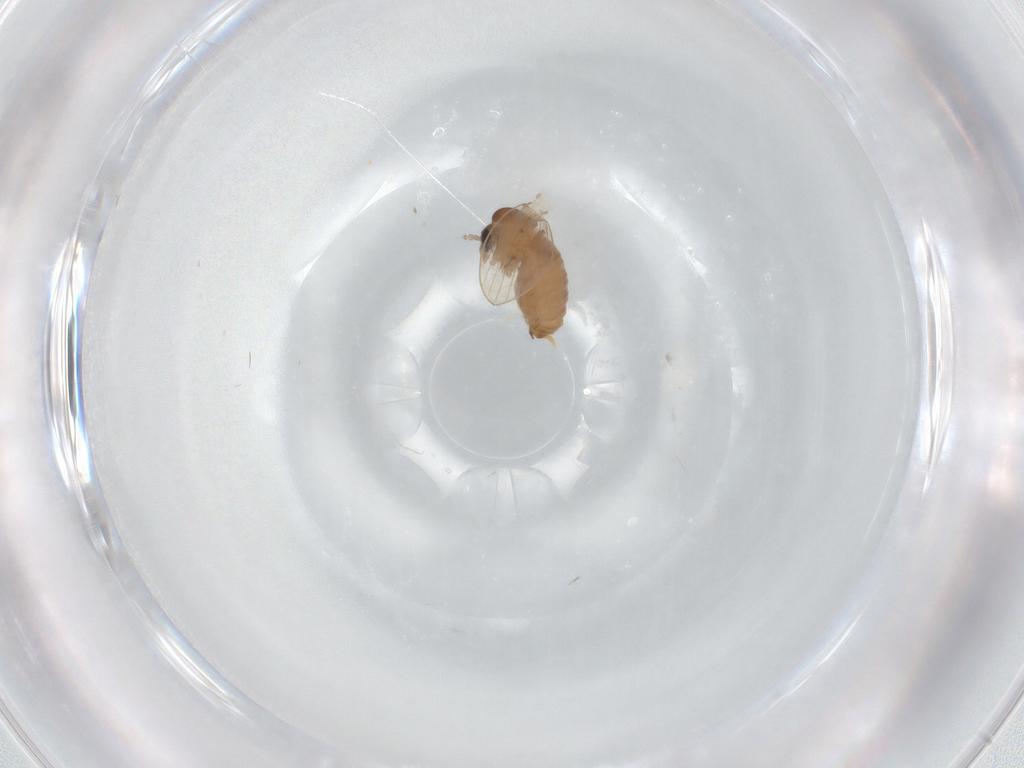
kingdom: Animalia
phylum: Arthropoda
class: Insecta
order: Diptera
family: Psychodidae
